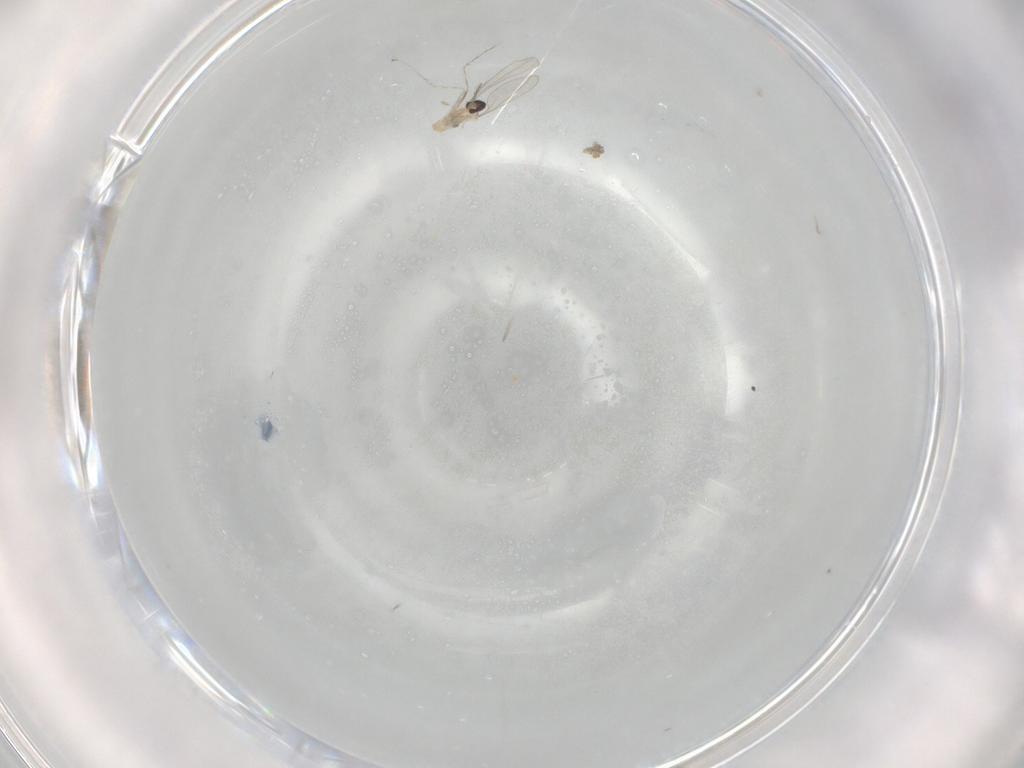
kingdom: Animalia
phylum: Arthropoda
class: Insecta
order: Diptera
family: Cecidomyiidae
